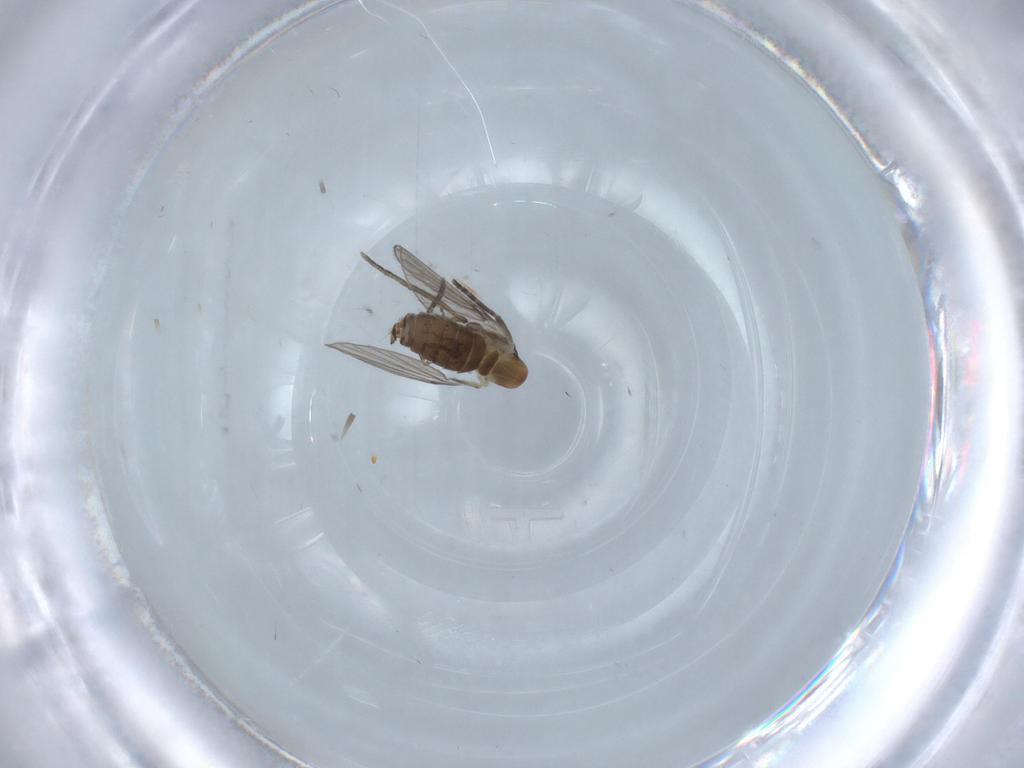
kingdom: Animalia
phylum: Arthropoda
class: Insecta
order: Diptera
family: Psychodidae
